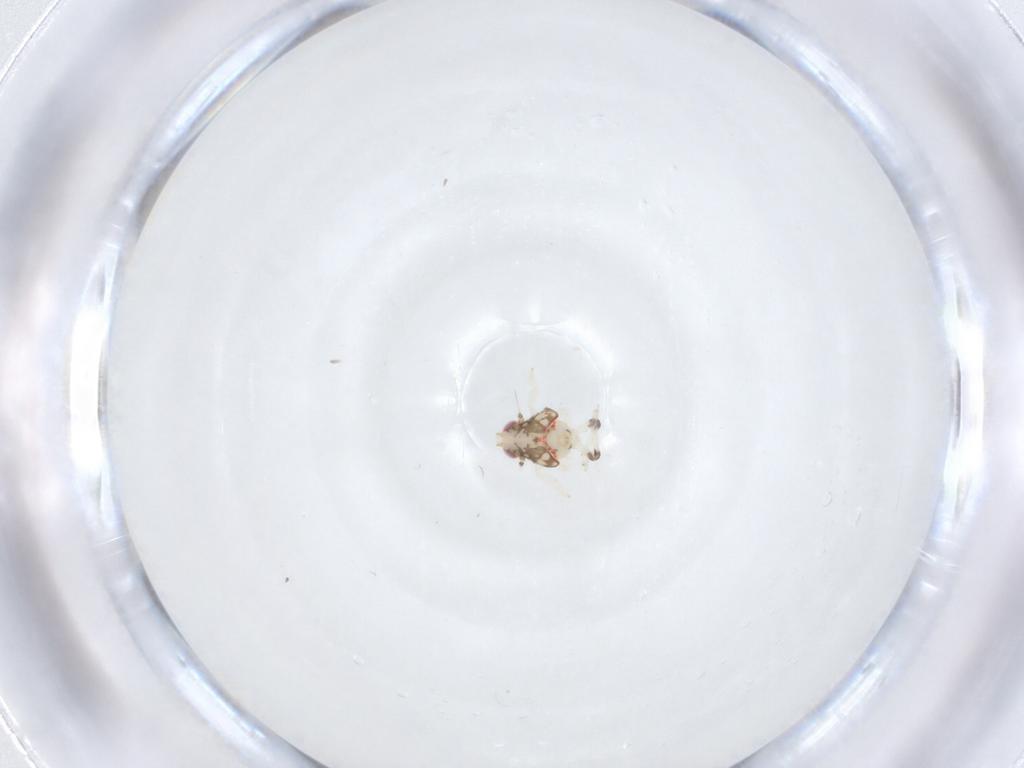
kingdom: Animalia
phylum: Arthropoda
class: Insecta
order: Hemiptera
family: Nogodinidae
